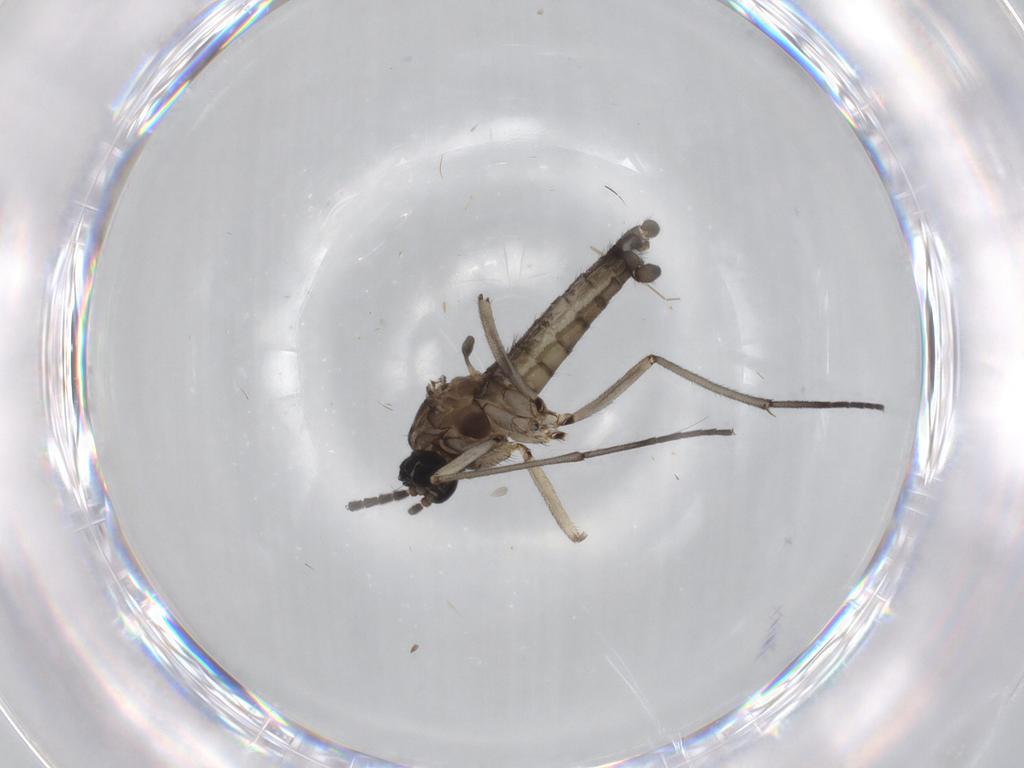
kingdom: Animalia
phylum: Arthropoda
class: Insecta
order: Diptera
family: Sciaridae
